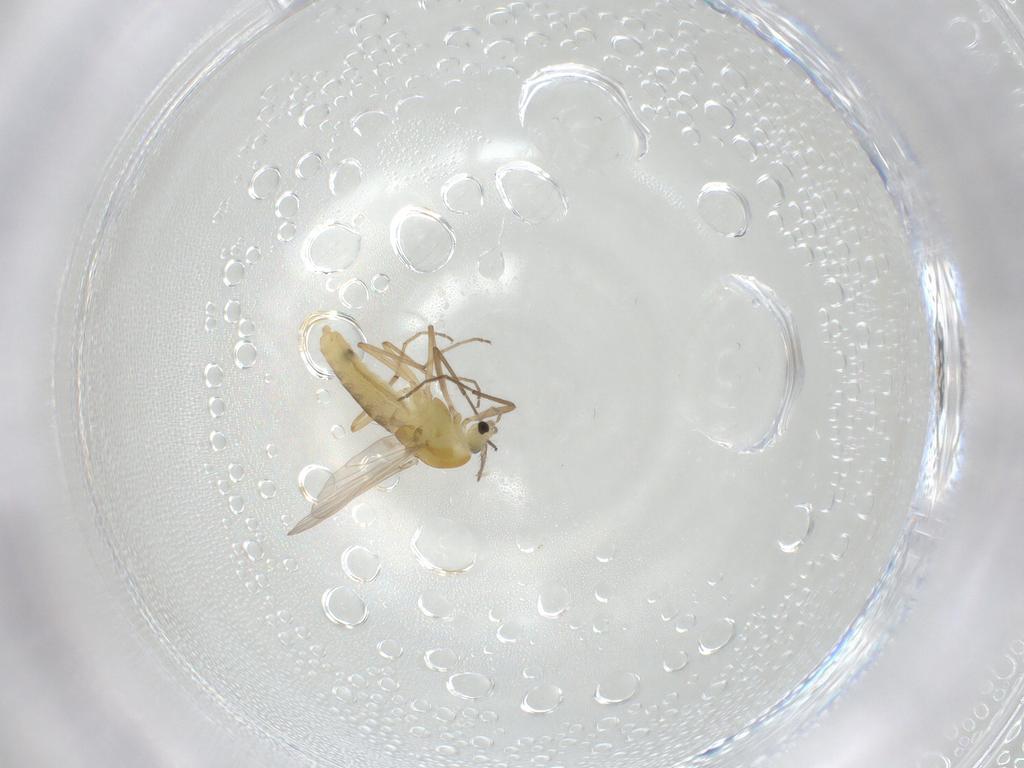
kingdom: Animalia
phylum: Arthropoda
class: Insecta
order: Diptera
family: Chironomidae
